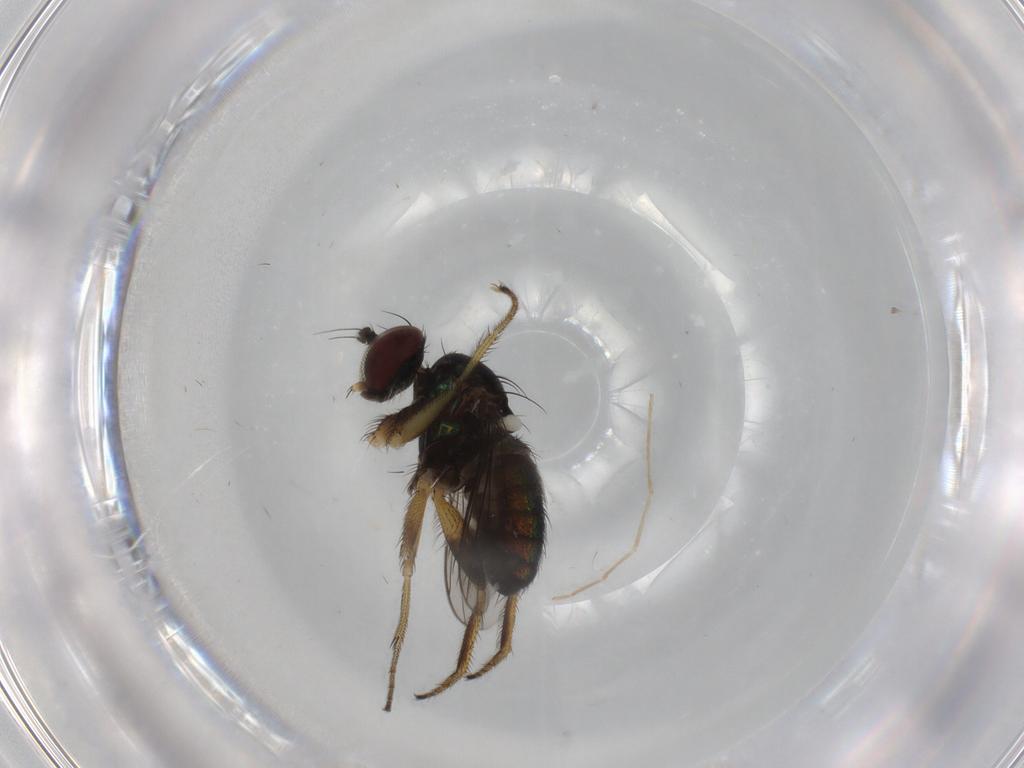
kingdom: Animalia
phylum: Arthropoda
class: Insecta
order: Diptera
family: Dolichopodidae
